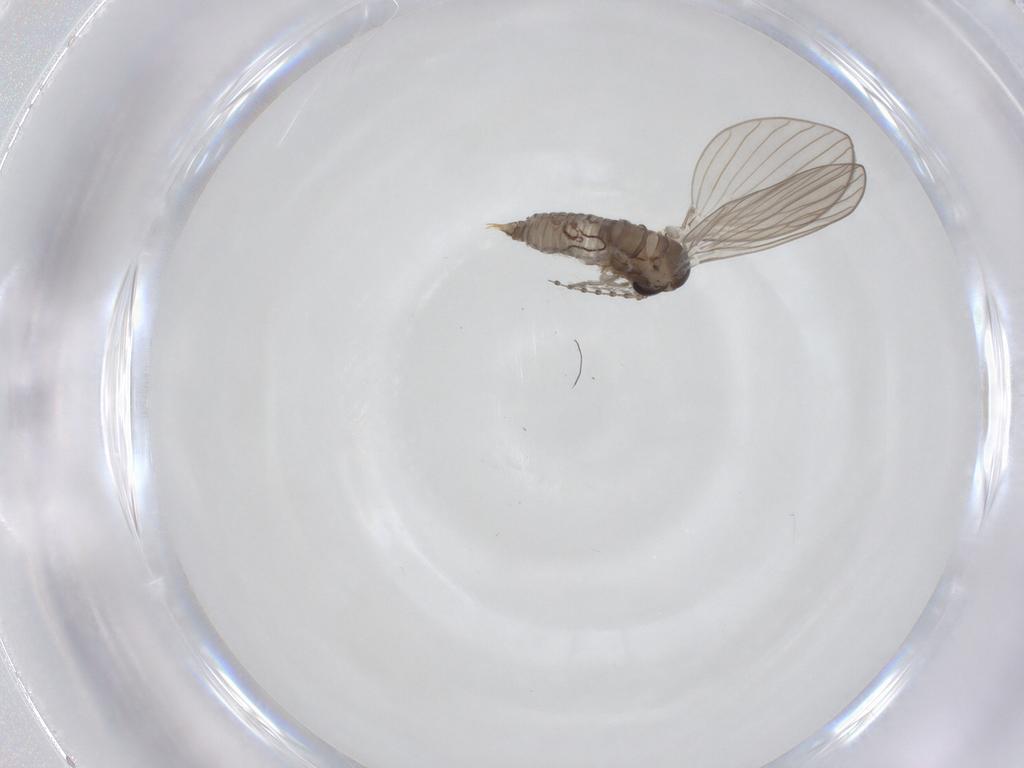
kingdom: Animalia
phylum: Arthropoda
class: Insecta
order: Diptera
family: Psychodidae
